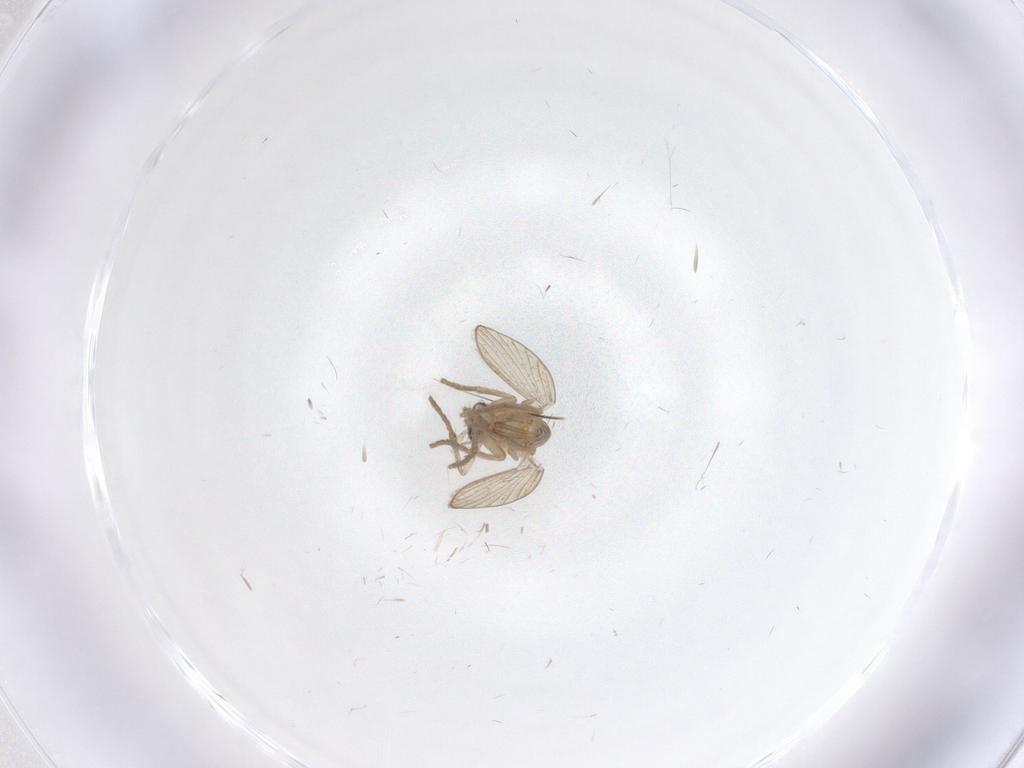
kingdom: Animalia
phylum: Arthropoda
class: Insecta
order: Diptera
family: Psychodidae
